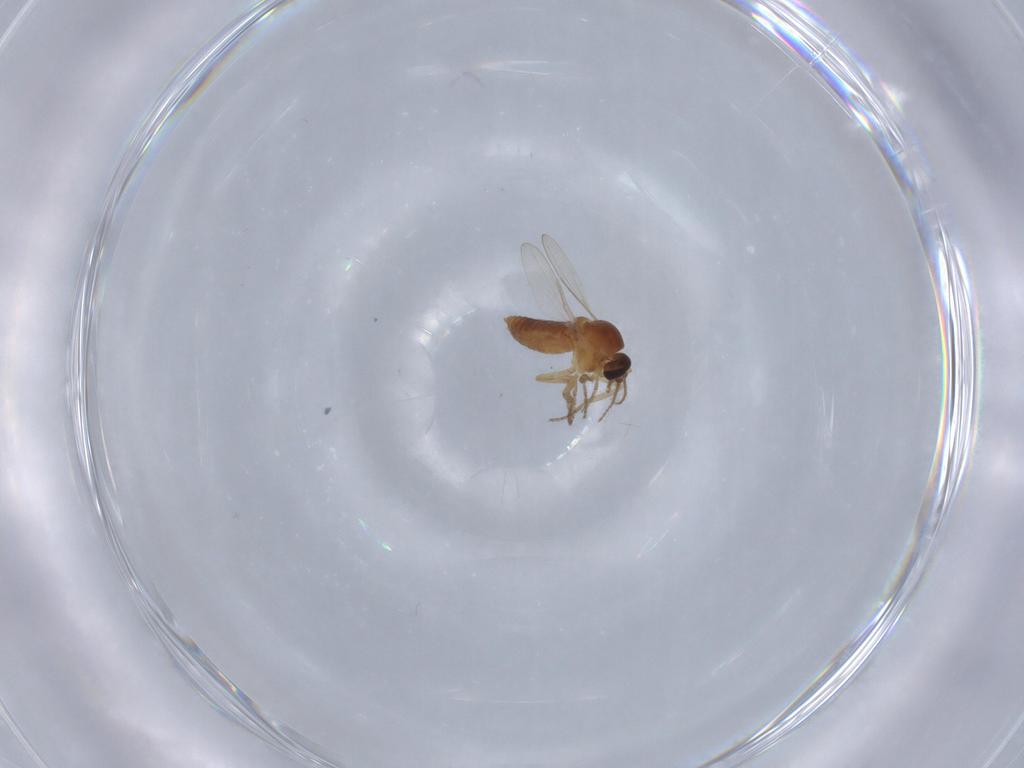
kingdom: Animalia
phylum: Arthropoda
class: Insecta
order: Diptera
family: Ceratopogonidae
